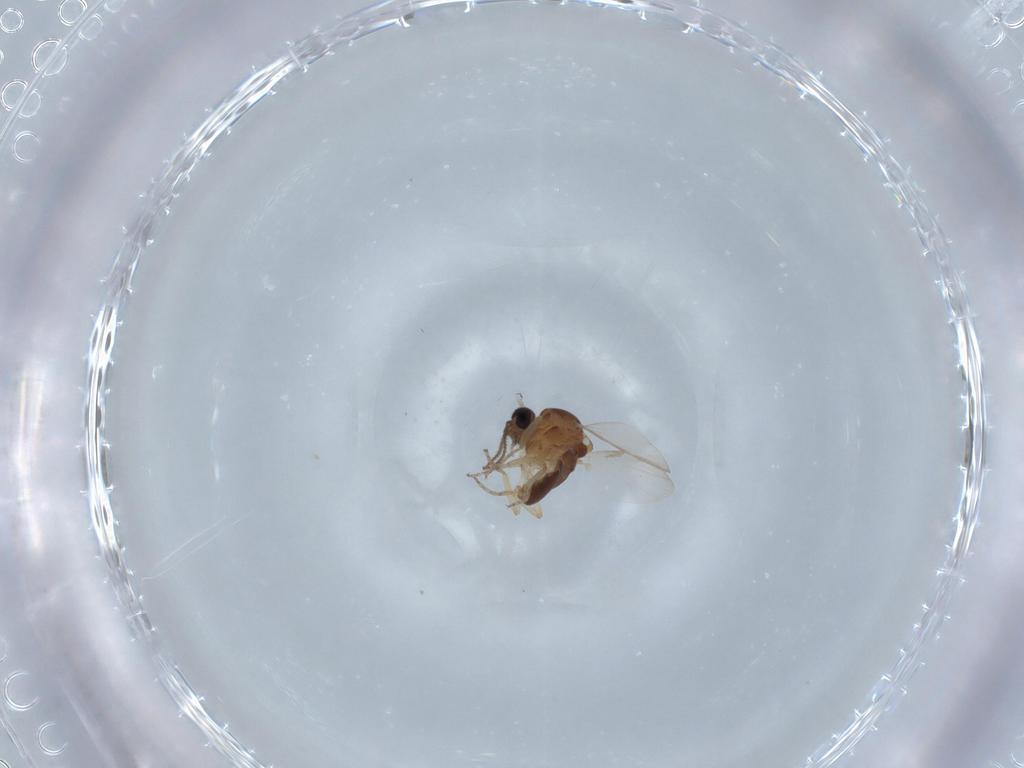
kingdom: Animalia
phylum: Arthropoda
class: Insecta
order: Diptera
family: Ceratopogonidae
